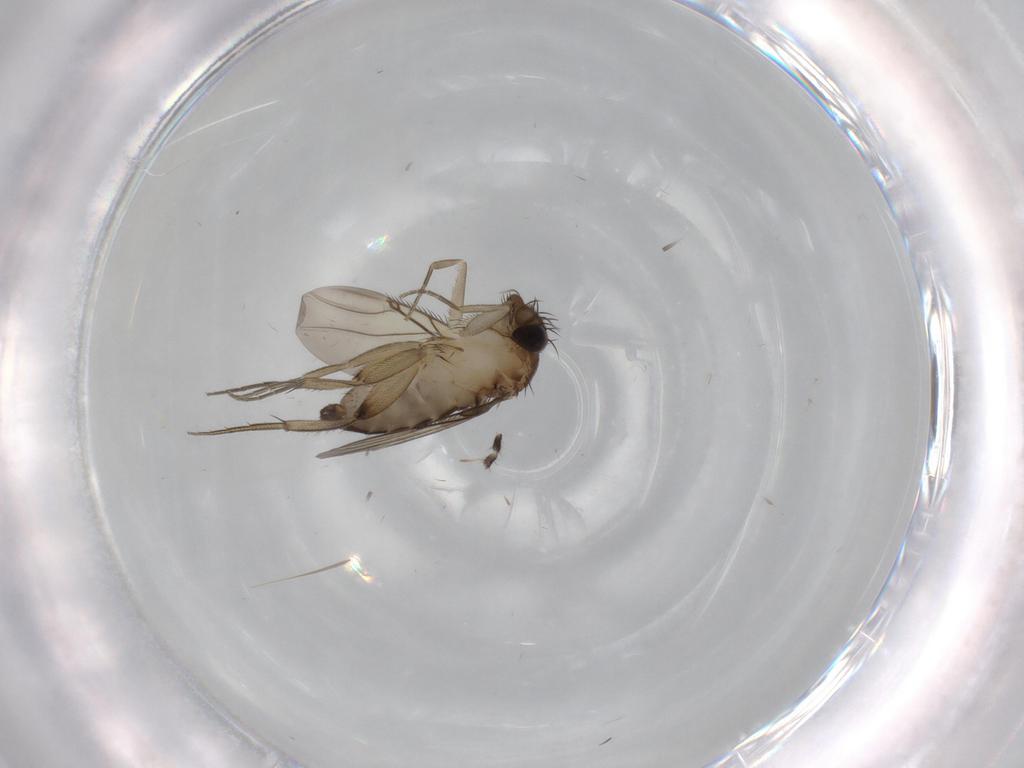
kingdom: Animalia
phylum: Arthropoda
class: Insecta
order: Diptera
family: Phoridae
